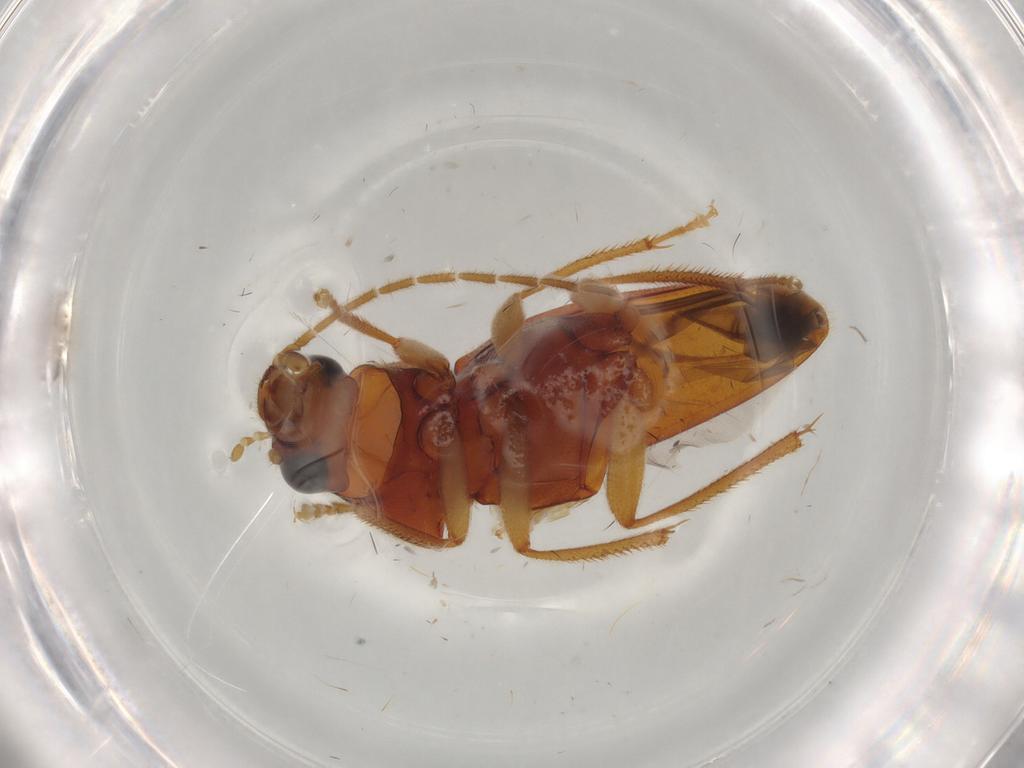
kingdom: Animalia
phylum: Arthropoda
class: Insecta
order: Coleoptera
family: Ptilodactylidae
